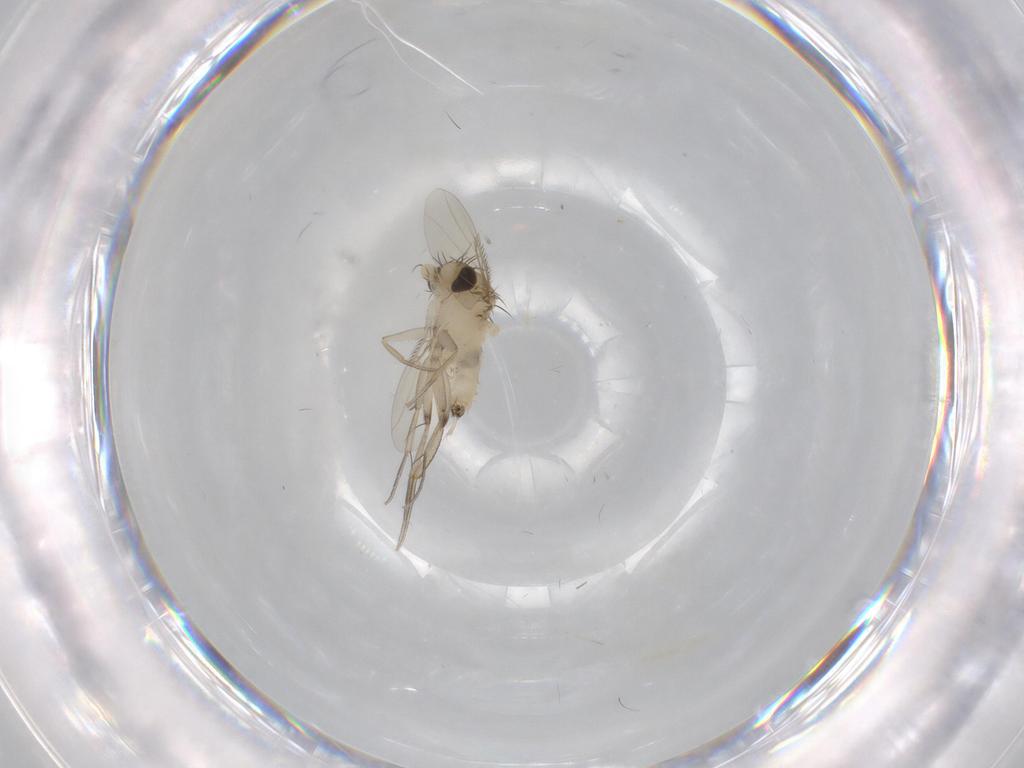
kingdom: Animalia
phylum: Arthropoda
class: Insecta
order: Diptera
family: Phoridae
